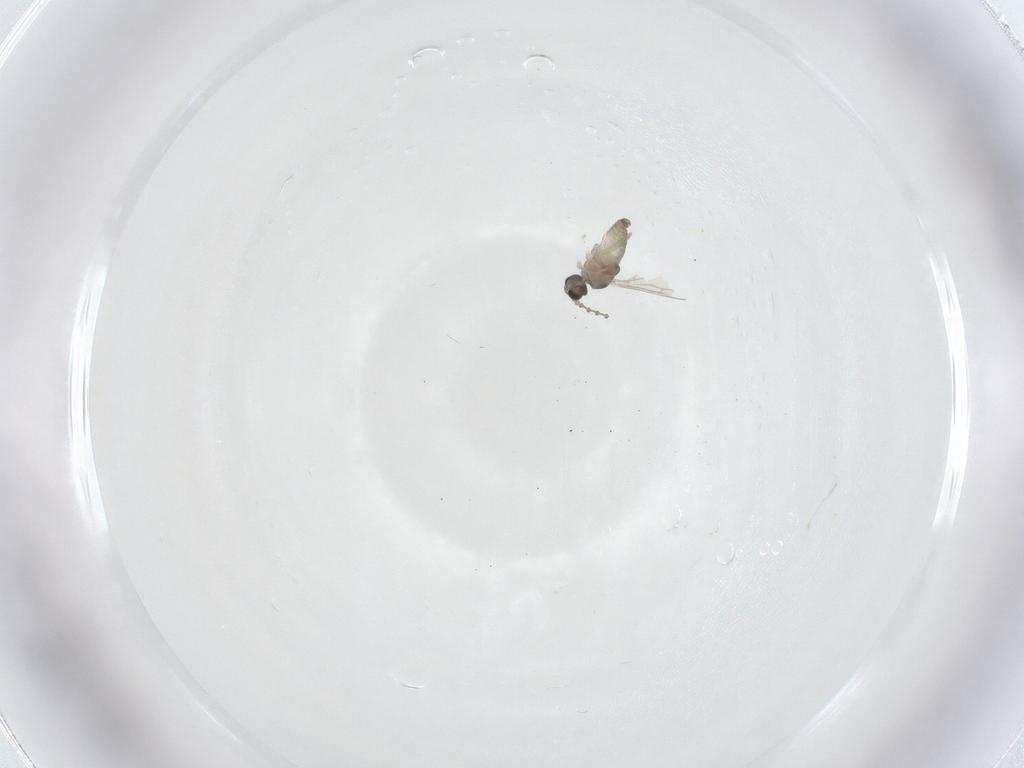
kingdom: Animalia
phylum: Arthropoda
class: Insecta
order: Diptera
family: Cecidomyiidae
